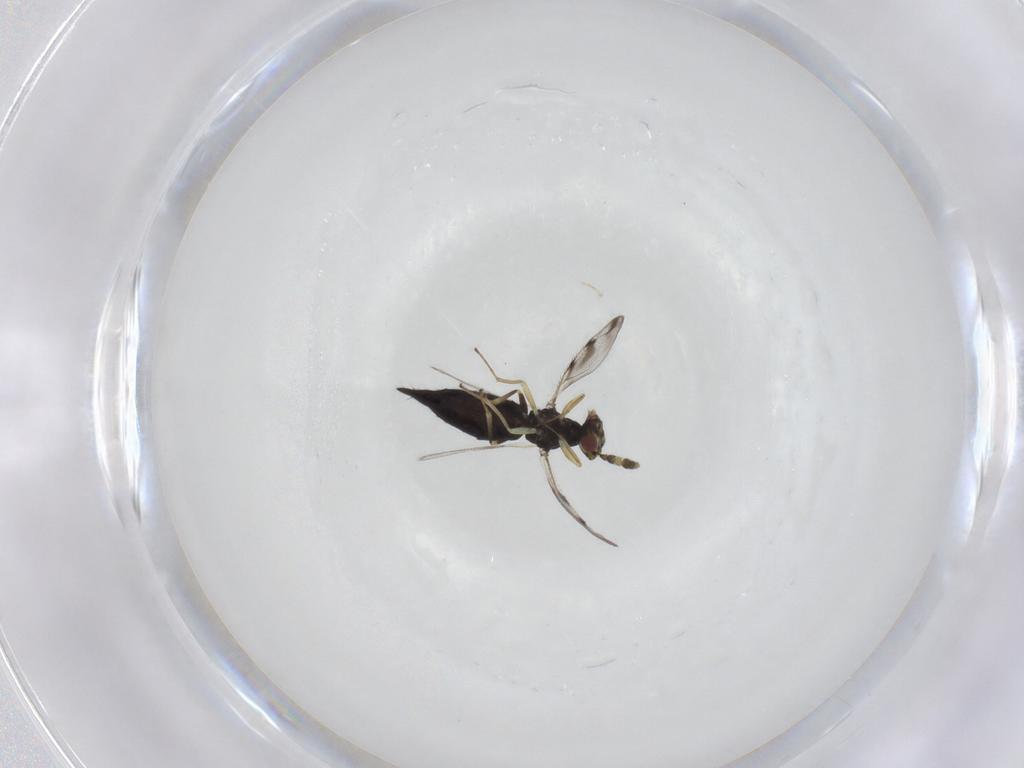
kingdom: Animalia
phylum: Arthropoda
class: Insecta
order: Hymenoptera
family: Eulophidae
